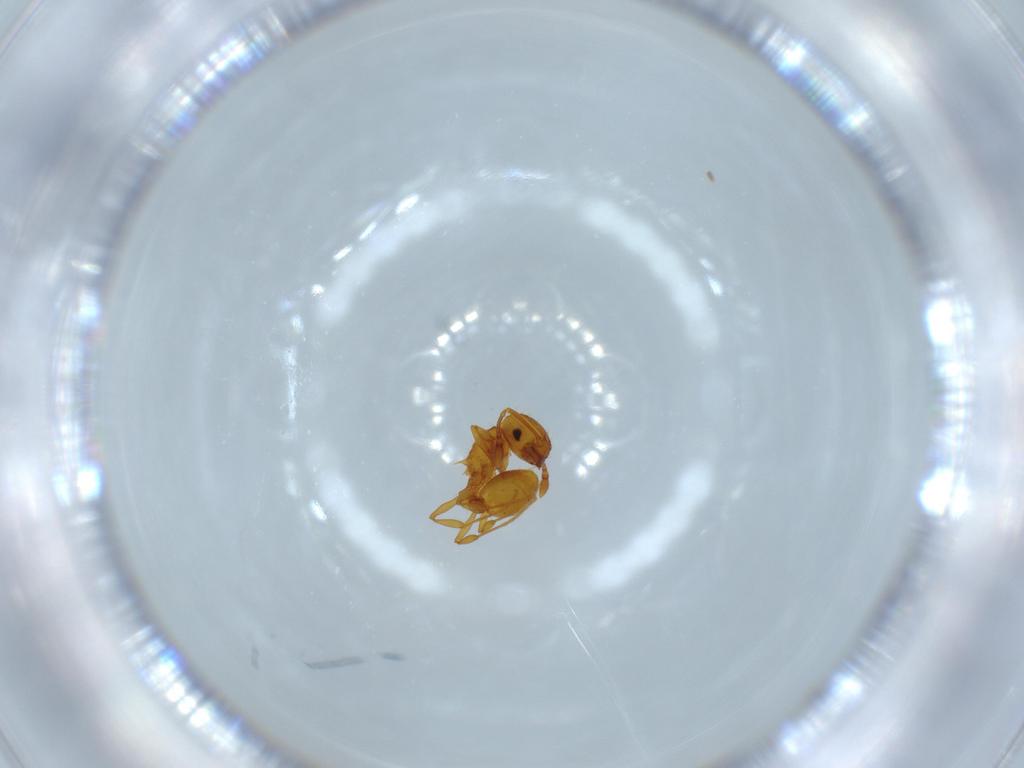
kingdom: Animalia
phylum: Arthropoda
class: Insecta
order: Hymenoptera
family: Formicidae
